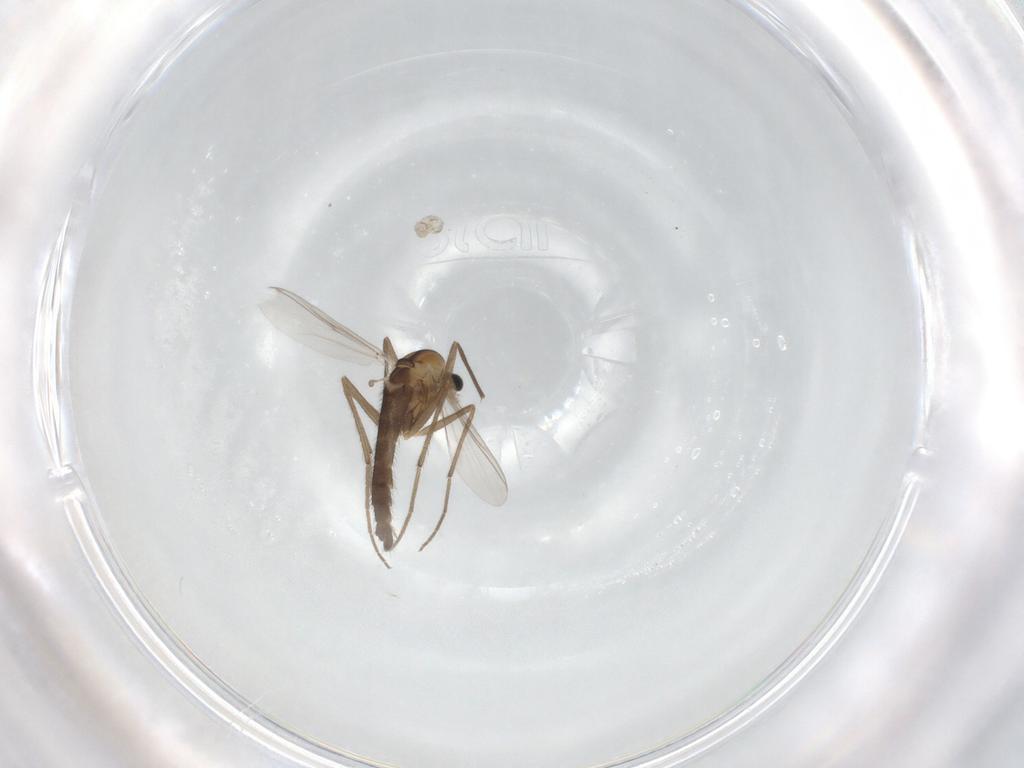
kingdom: Animalia
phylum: Arthropoda
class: Insecta
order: Diptera
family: Chironomidae
